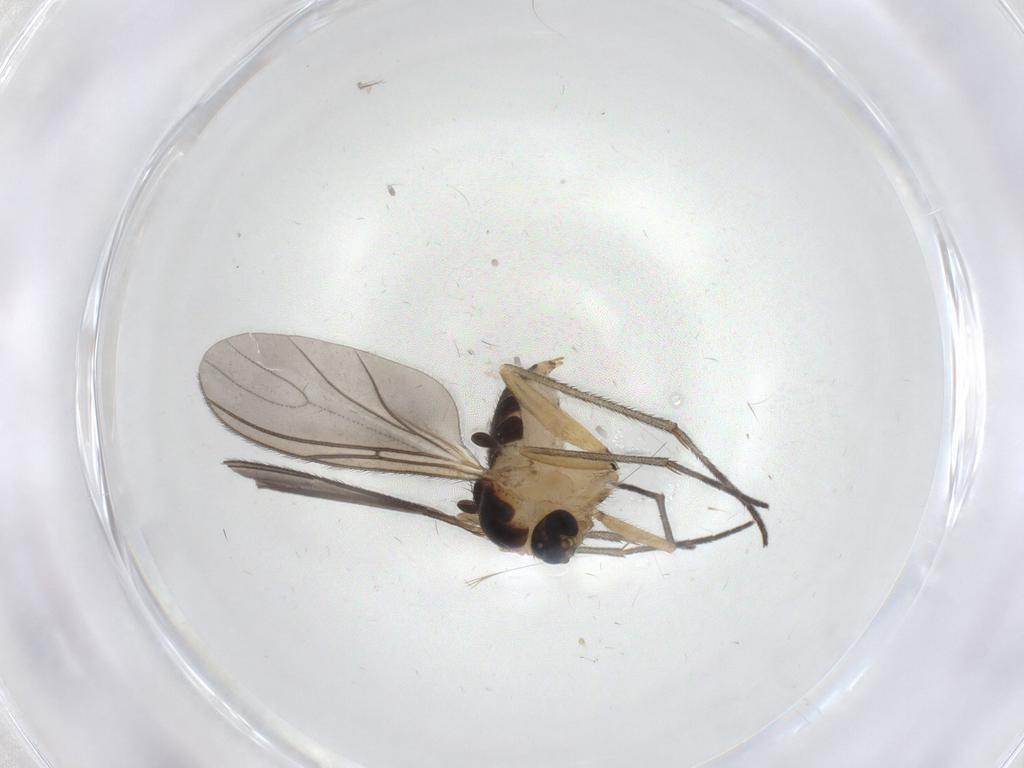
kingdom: Animalia
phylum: Arthropoda
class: Insecta
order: Diptera
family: Sciaridae
